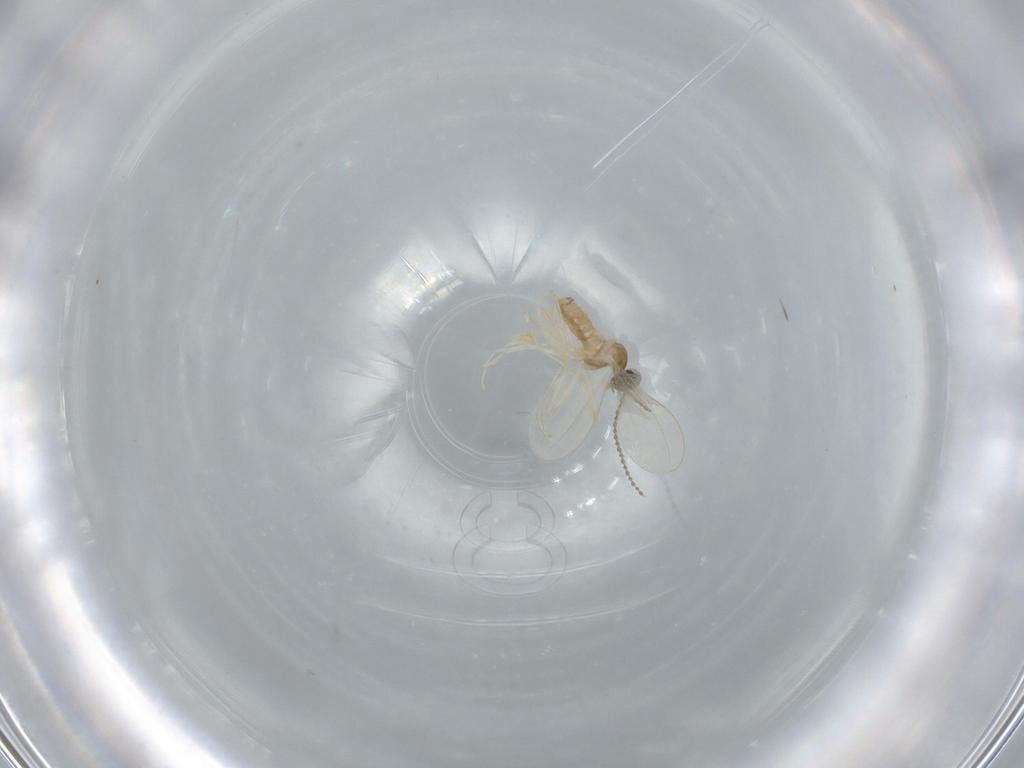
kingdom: Animalia
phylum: Arthropoda
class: Insecta
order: Diptera
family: Cecidomyiidae
